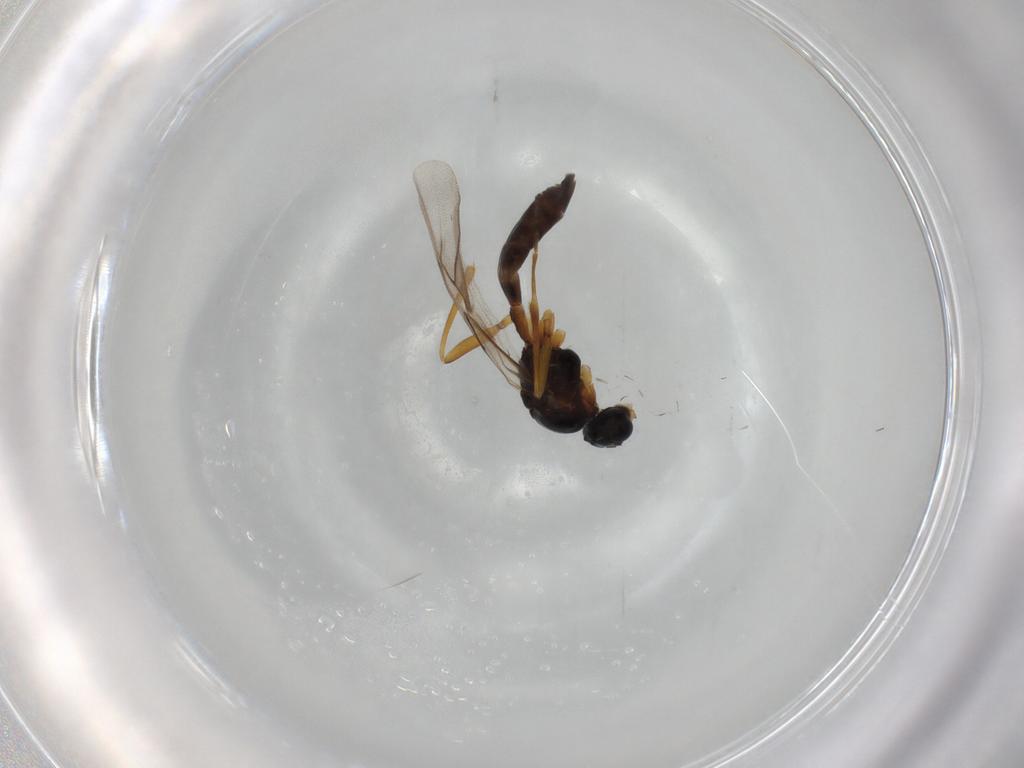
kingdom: Animalia
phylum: Arthropoda
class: Insecta
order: Hymenoptera
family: Braconidae
